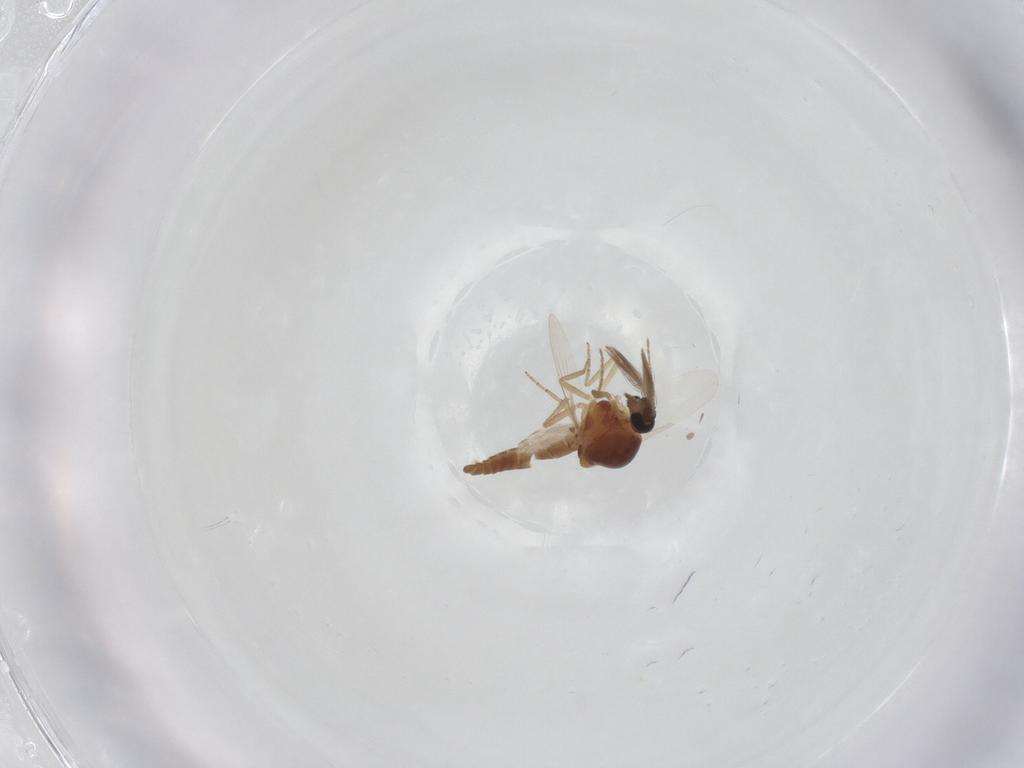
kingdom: Animalia
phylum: Arthropoda
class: Insecta
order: Diptera
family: Ceratopogonidae
